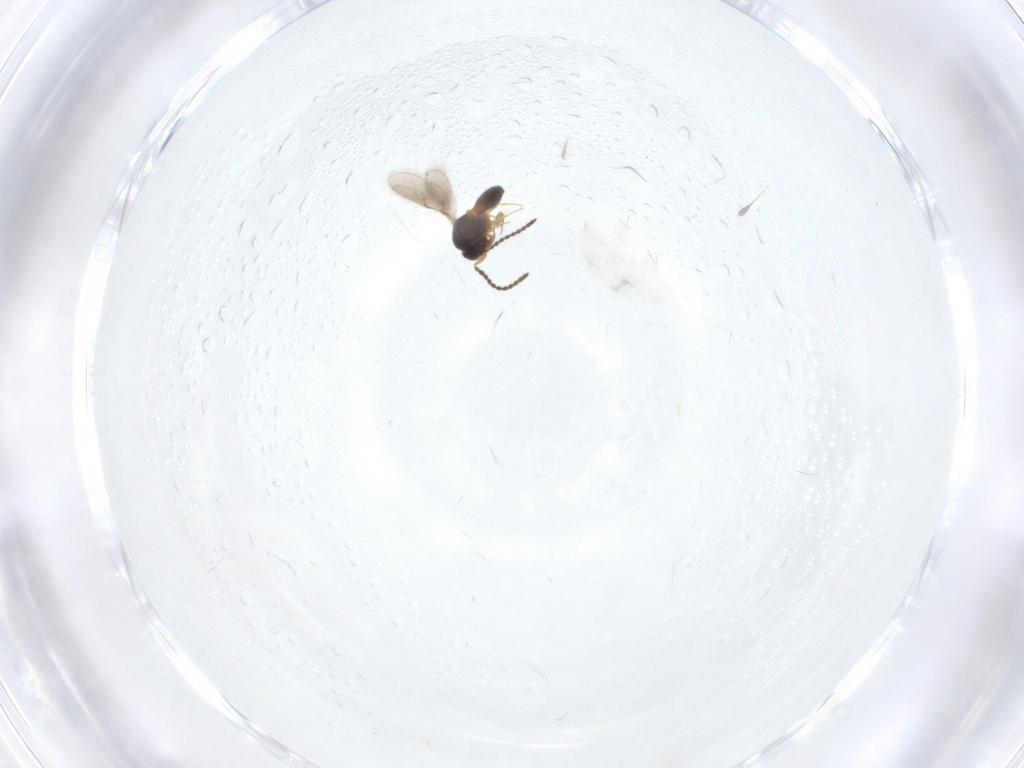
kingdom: Animalia
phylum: Arthropoda
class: Insecta
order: Hymenoptera
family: Scelionidae
